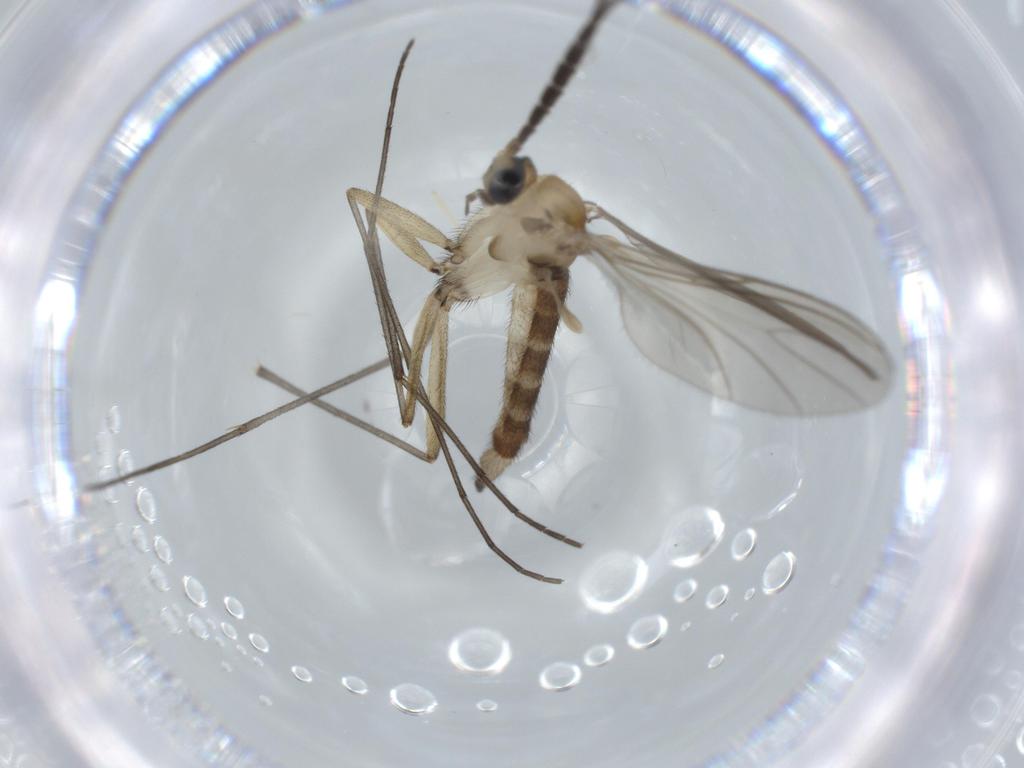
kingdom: Animalia
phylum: Arthropoda
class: Insecta
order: Diptera
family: Sciaridae
